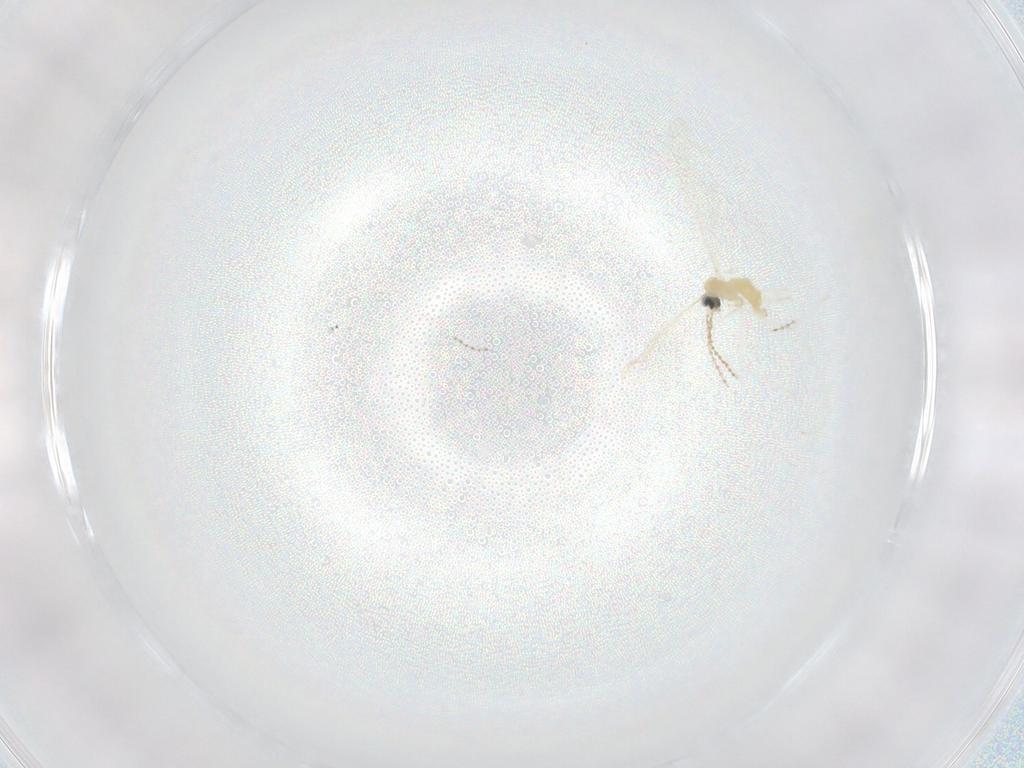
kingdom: Animalia
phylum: Arthropoda
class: Insecta
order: Diptera
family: Cecidomyiidae
